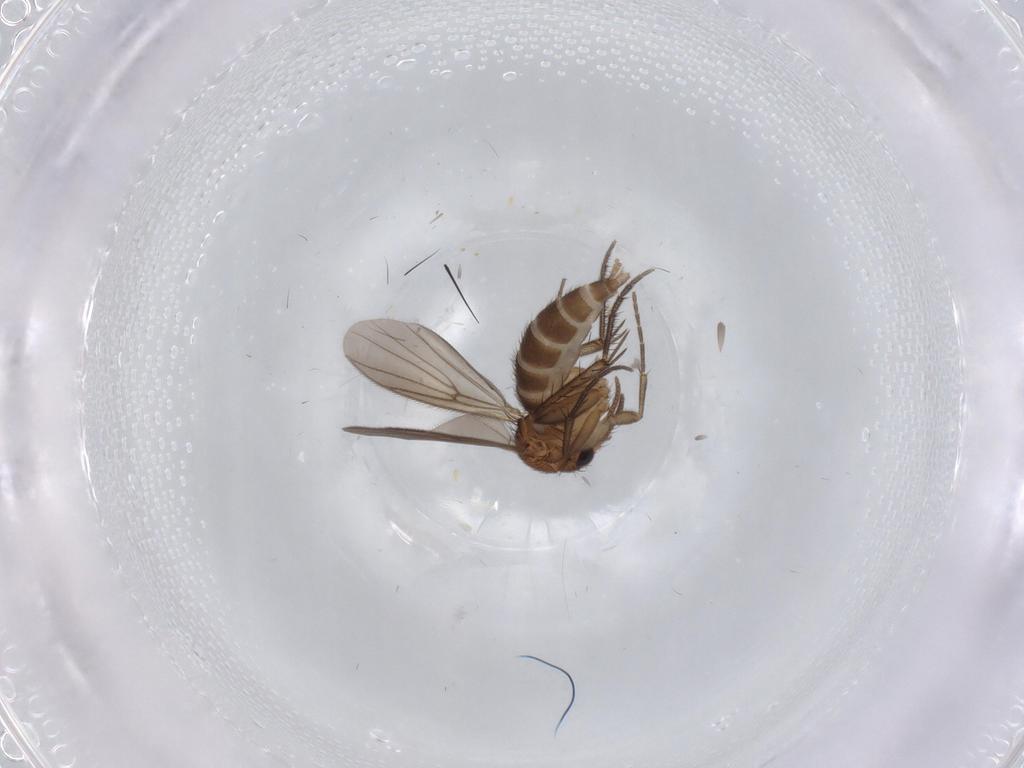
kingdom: Animalia
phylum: Arthropoda
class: Insecta
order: Diptera
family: Mycetophilidae
